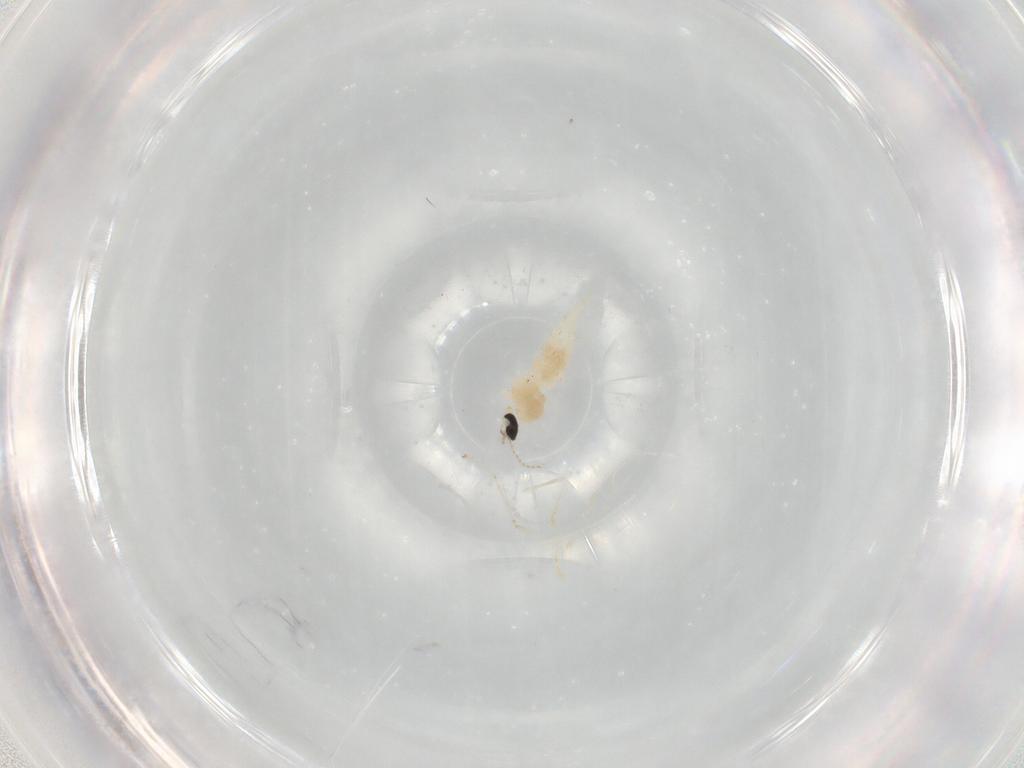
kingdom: Animalia
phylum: Arthropoda
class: Insecta
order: Diptera
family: Cecidomyiidae
